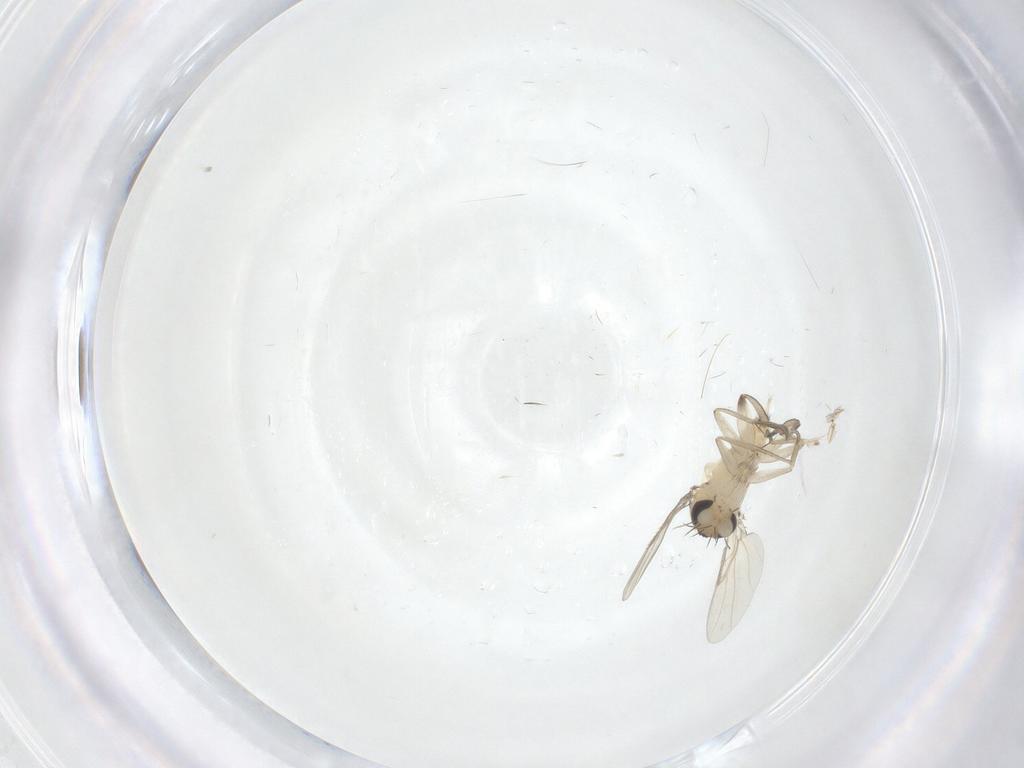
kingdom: Animalia
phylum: Arthropoda
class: Insecta
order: Diptera
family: Phoridae
